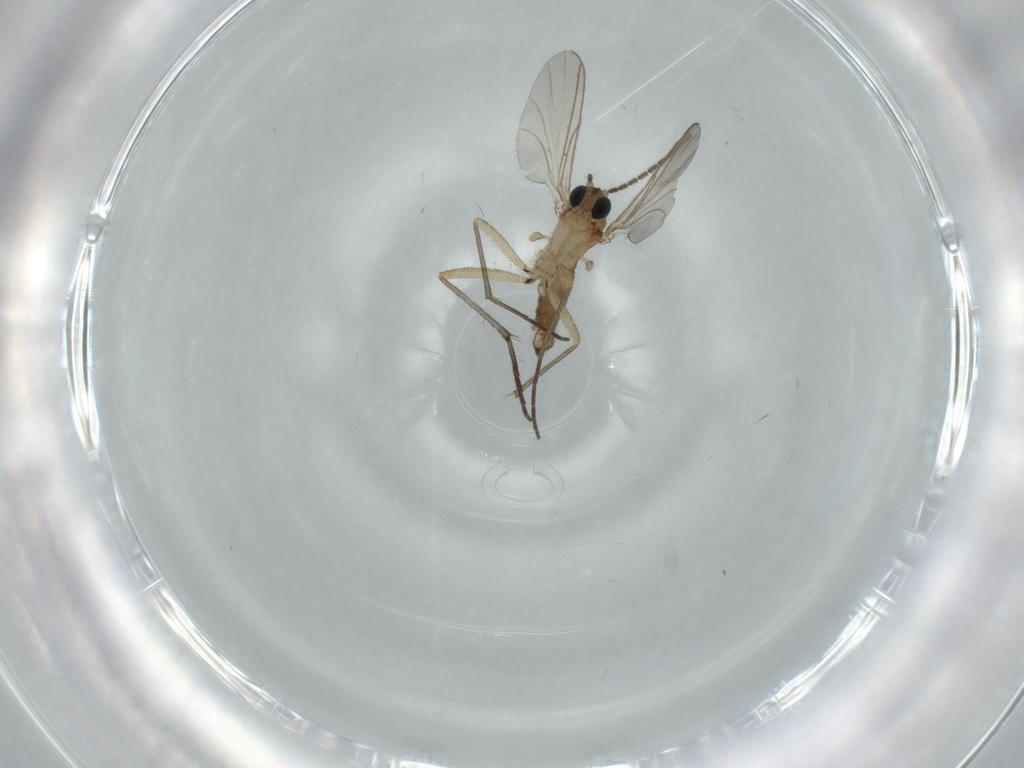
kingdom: Animalia
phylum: Arthropoda
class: Insecta
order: Diptera
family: Sciaridae
